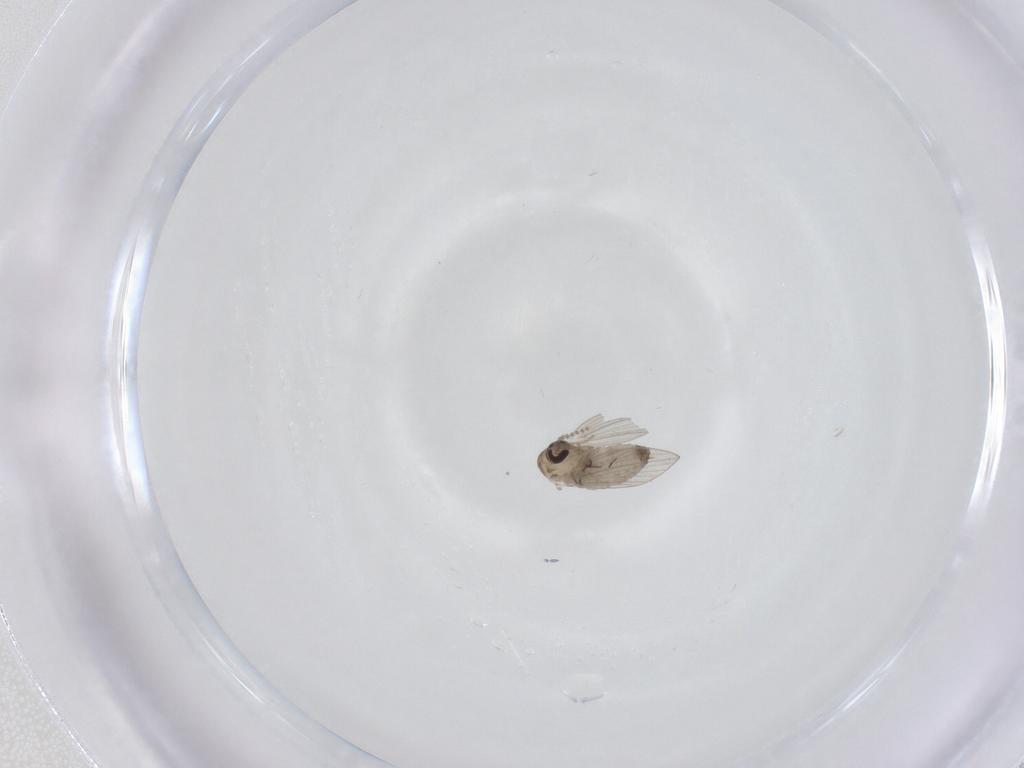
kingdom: Animalia
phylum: Arthropoda
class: Insecta
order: Diptera
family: Psychodidae
